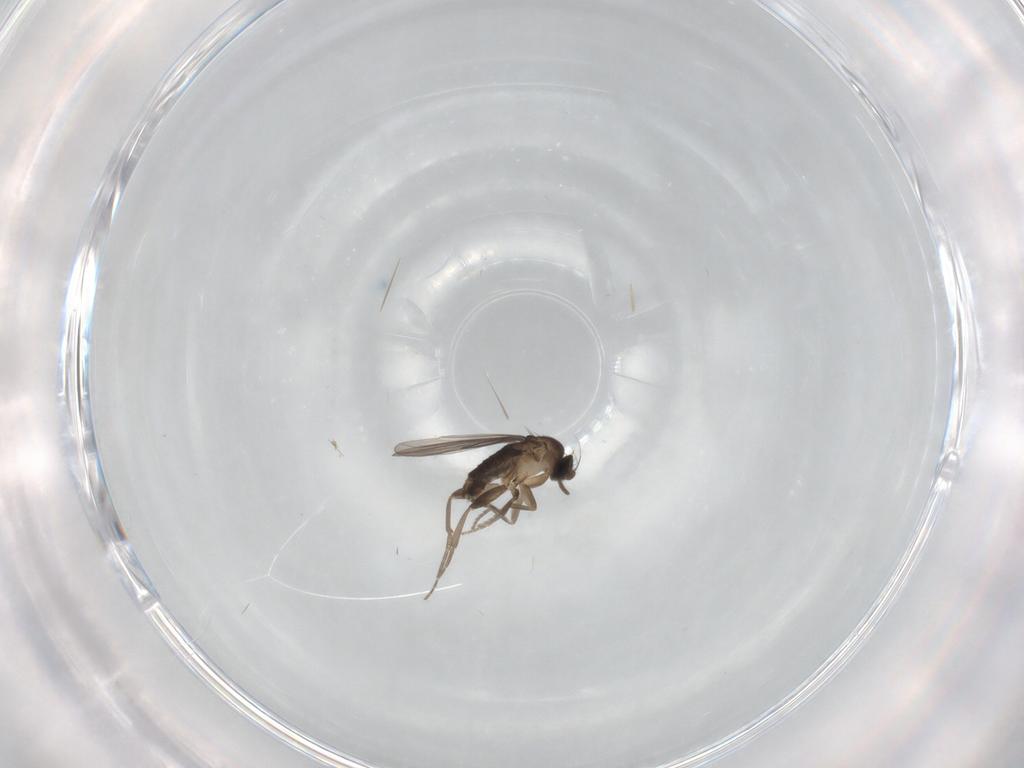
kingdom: Animalia
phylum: Arthropoda
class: Insecta
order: Diptera
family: Phoridae
